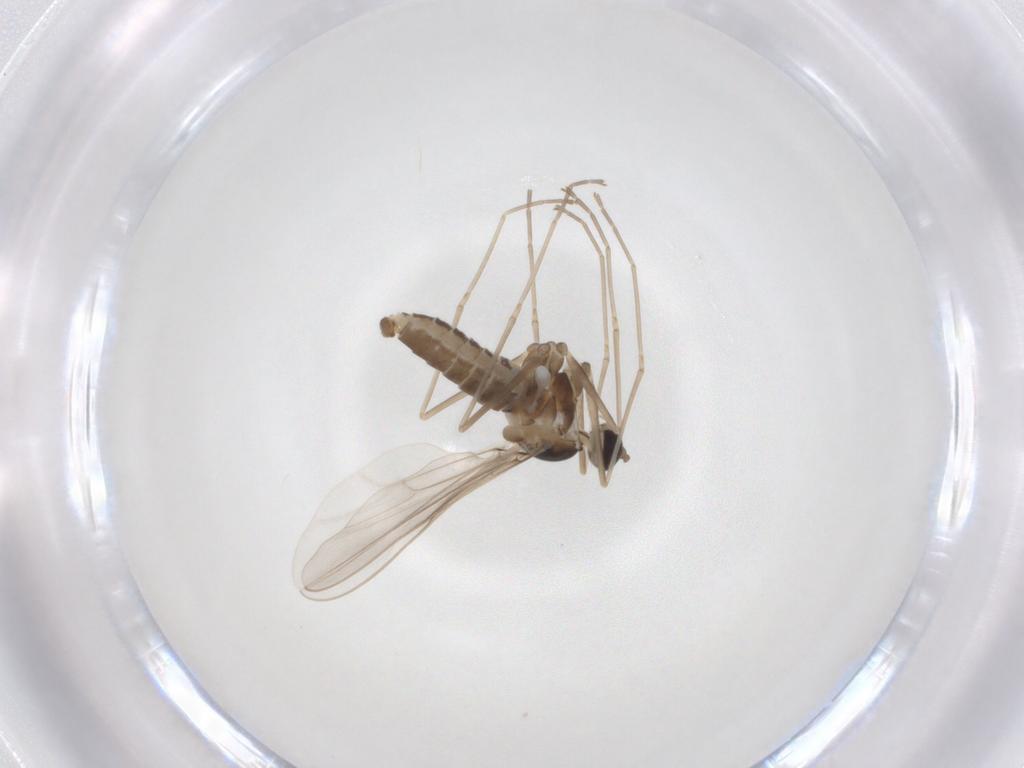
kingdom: Animalia
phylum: Arthropoda
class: Insecta
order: Diptera
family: Cecidomyiidae
